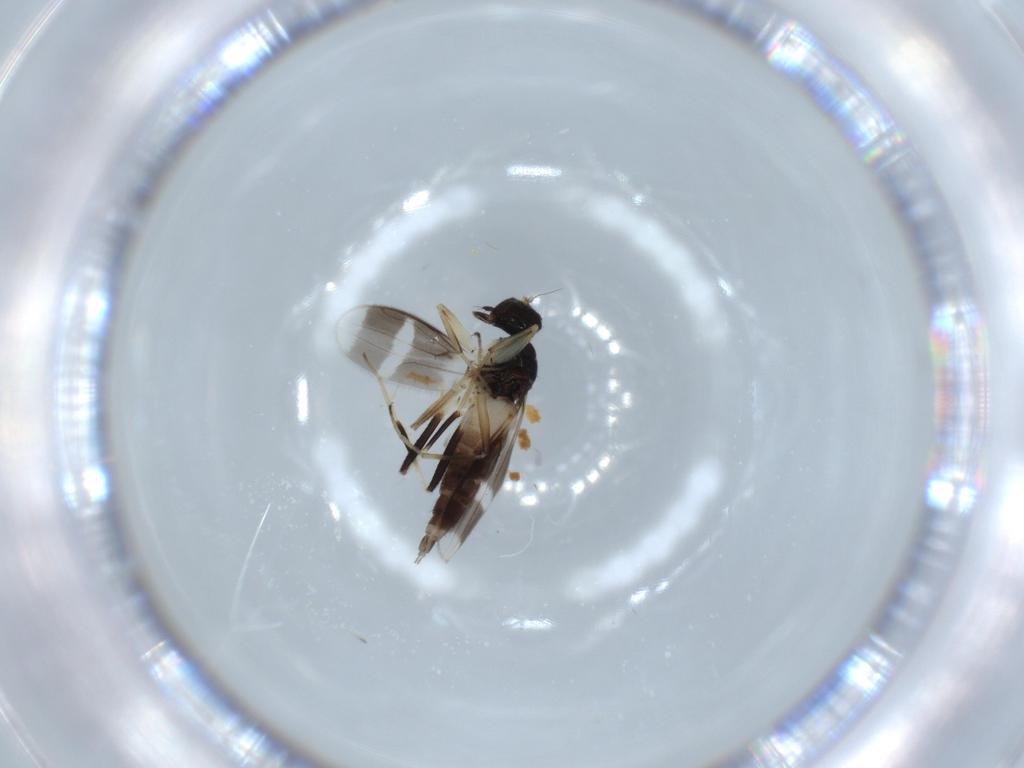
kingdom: Animalia
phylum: Arthropoda
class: Insecta
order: Diptera
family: Hybotidae
